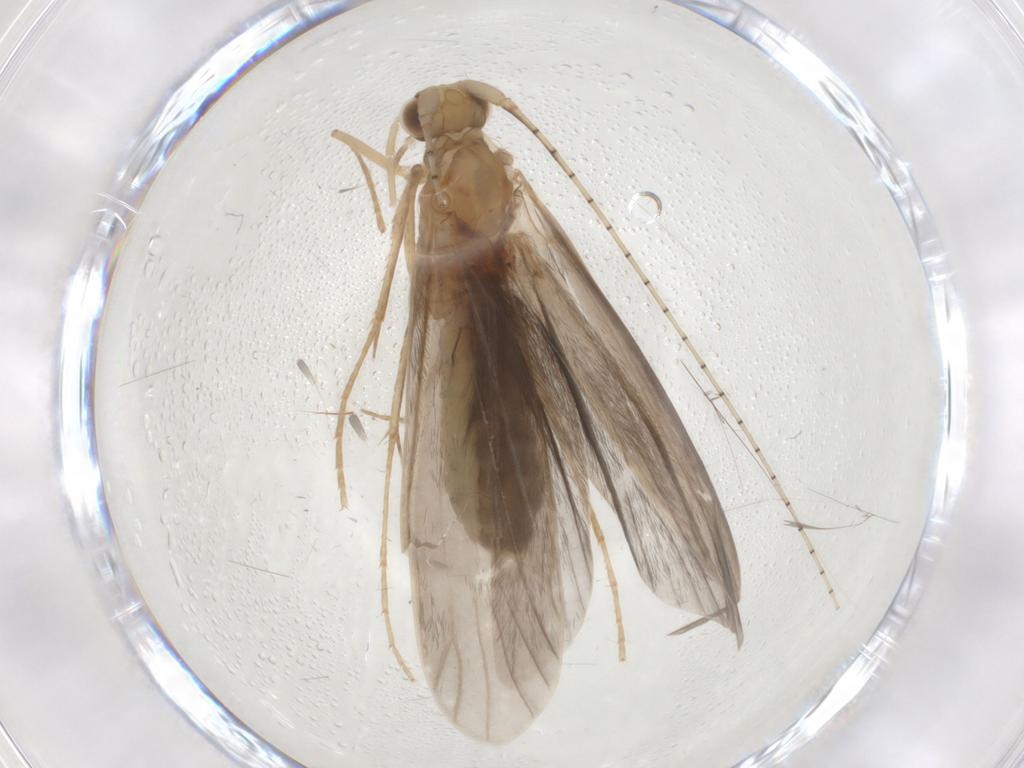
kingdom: Animalia
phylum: Arthropoda
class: Insecta
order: Trichoptera
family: Leptoceridae
